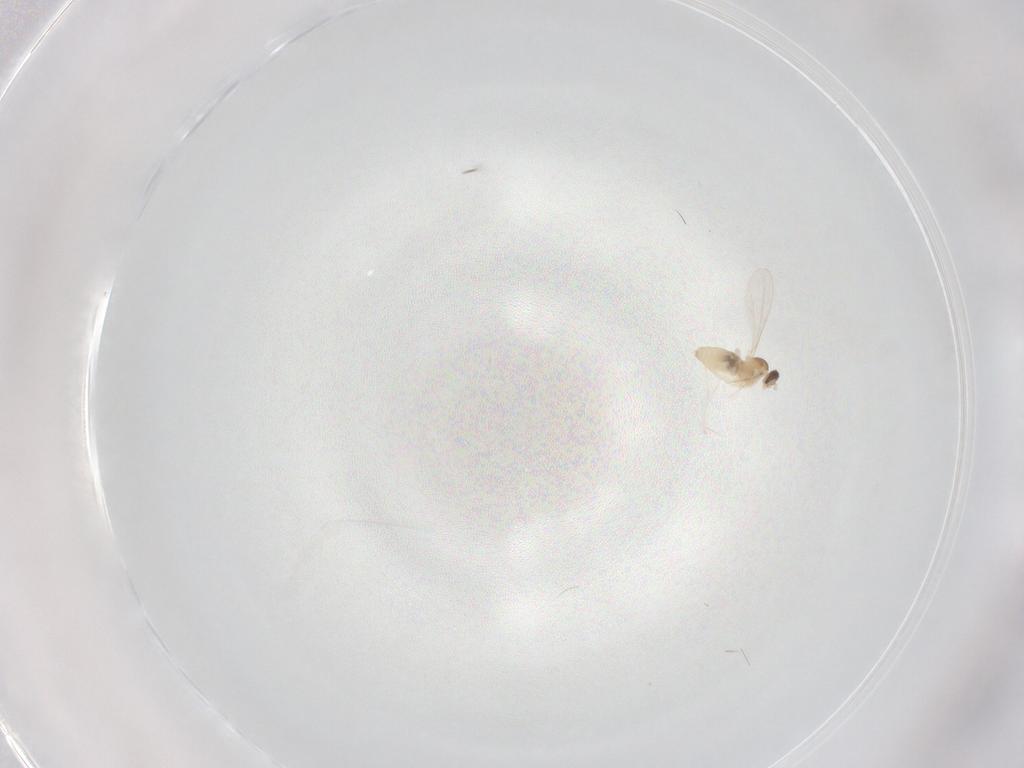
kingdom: Animalia
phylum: Arthropoda
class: Insecta
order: Diptera
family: Cecidomyiidae
